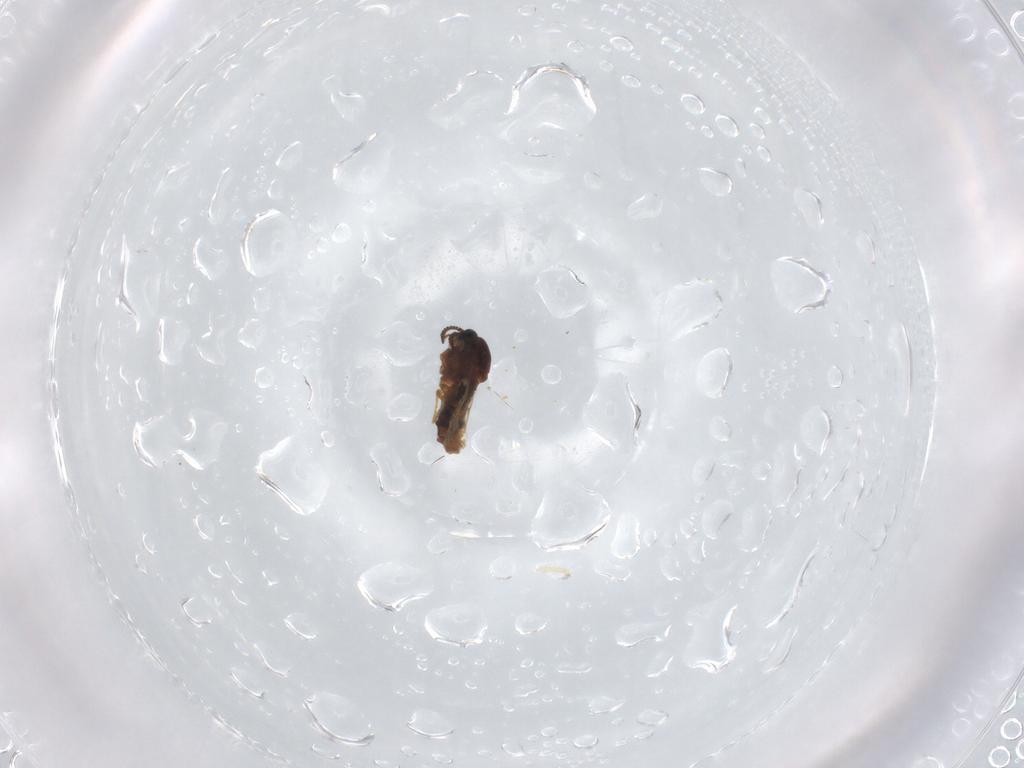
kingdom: Animalia
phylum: Arthropoda
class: Insecta
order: Diptera
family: Scatopsidae
